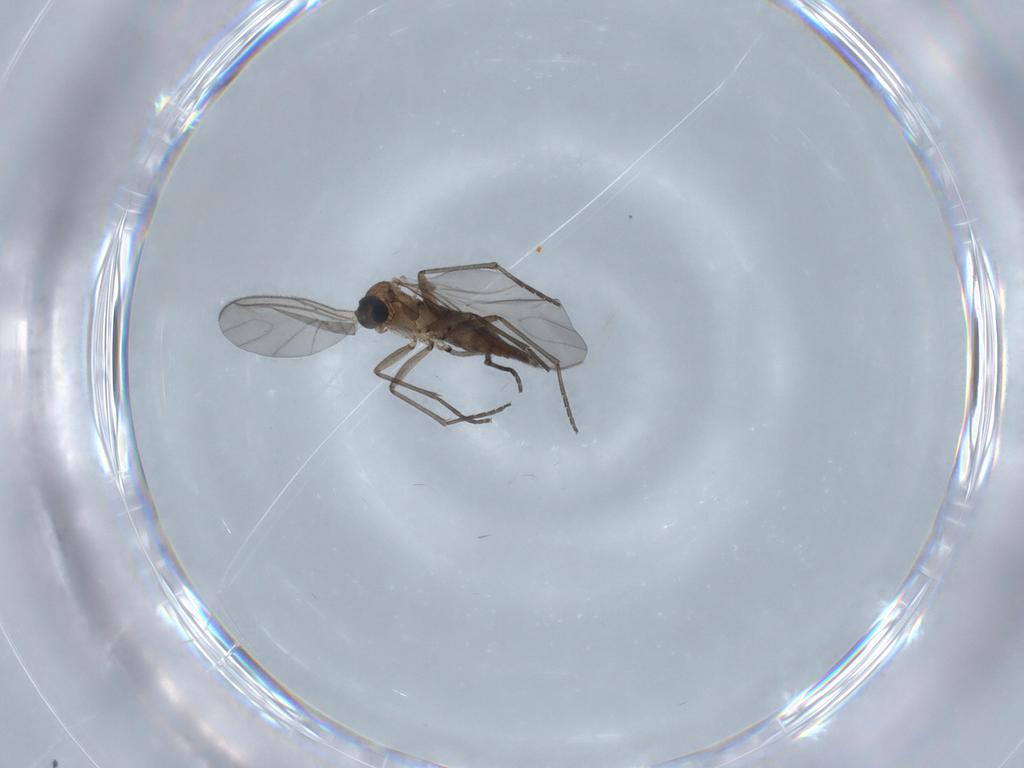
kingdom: Animalia
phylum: Arthropoda
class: Insecta
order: Diptera
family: Sciaridae
